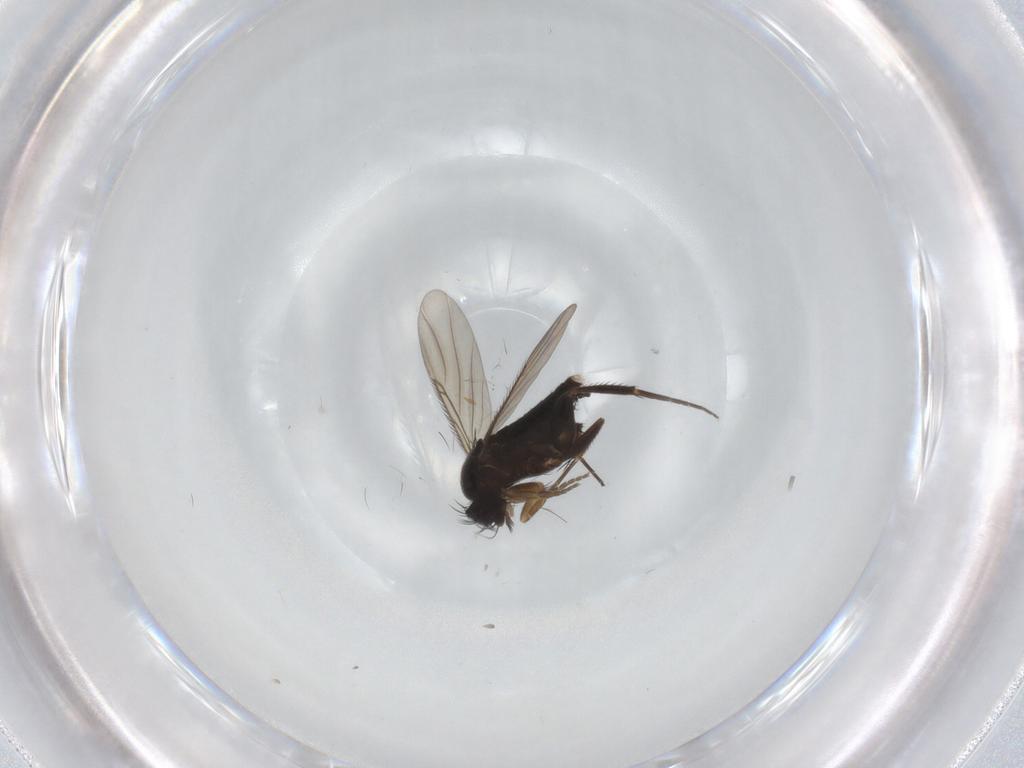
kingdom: Animalia
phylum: Arthropoda
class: Insecta
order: Diptera
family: Phoridae
